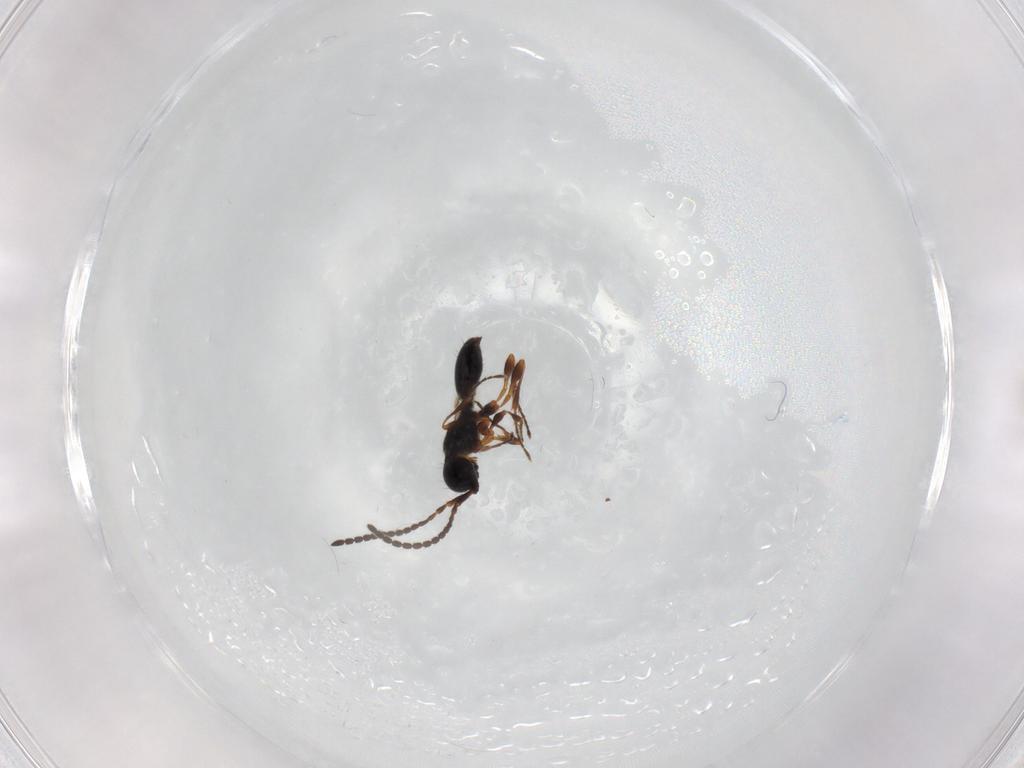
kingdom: Animalia
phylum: Arthropoda
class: Insecta
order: Hymenoptera
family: Diapriidae
